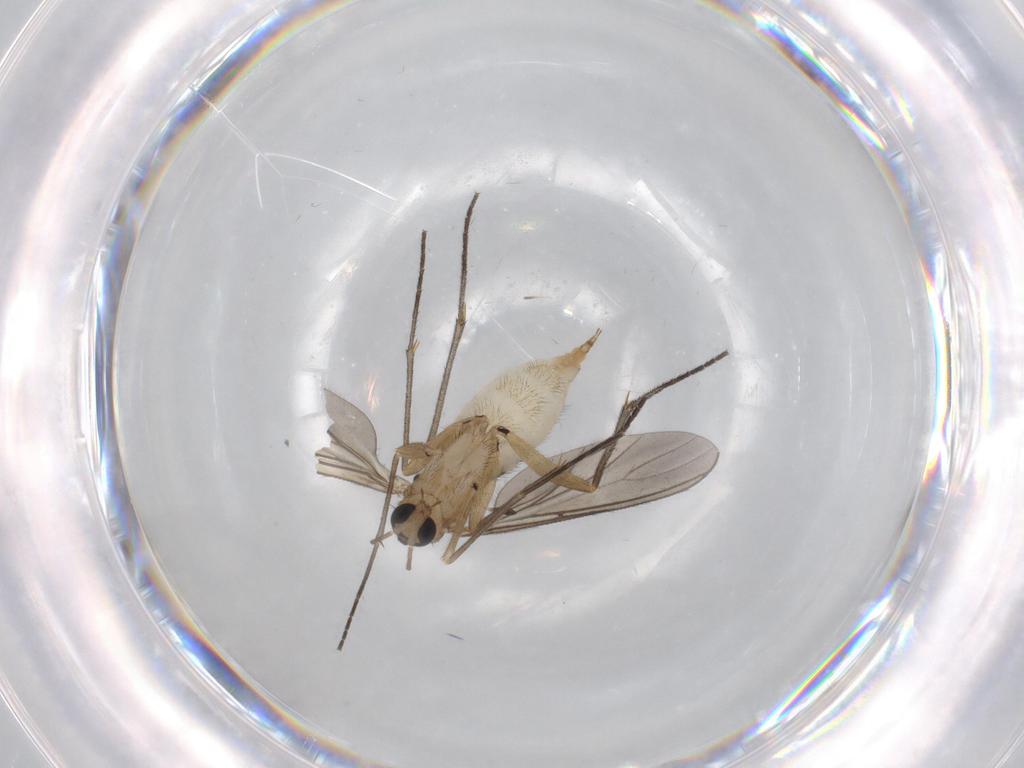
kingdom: Animalia
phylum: Arthropoda
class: Insecta
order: Diptera
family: Sciaridae
